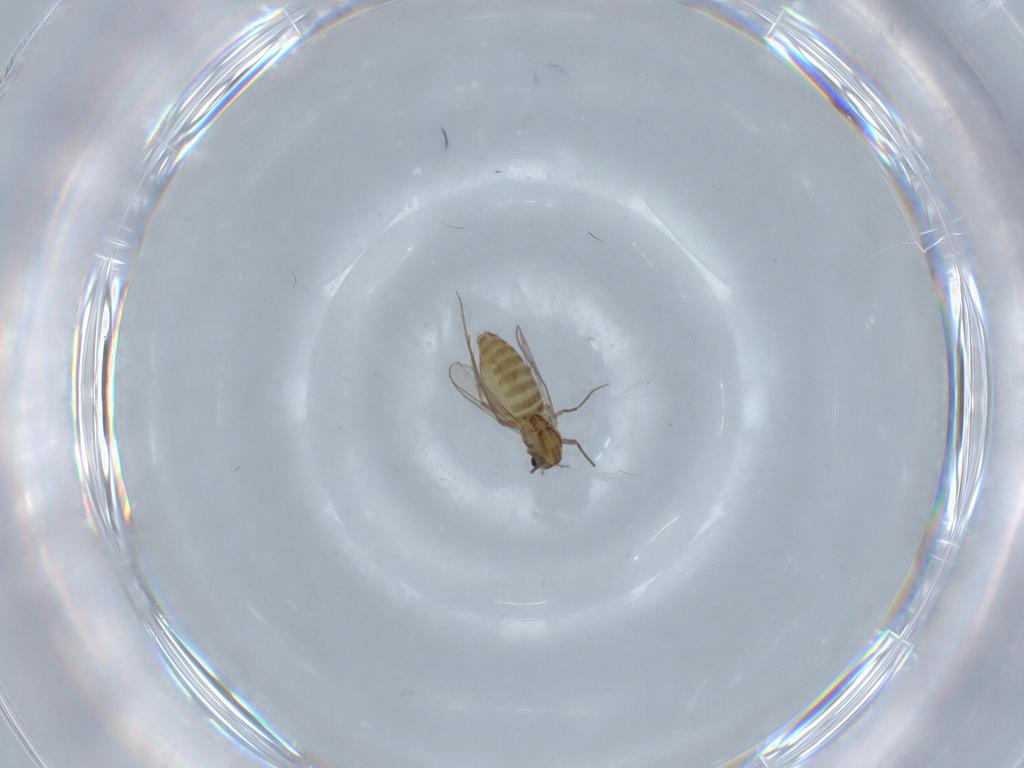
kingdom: Animalia
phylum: Arthropoda
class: Insecta
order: Diptera
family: Chironomidae
